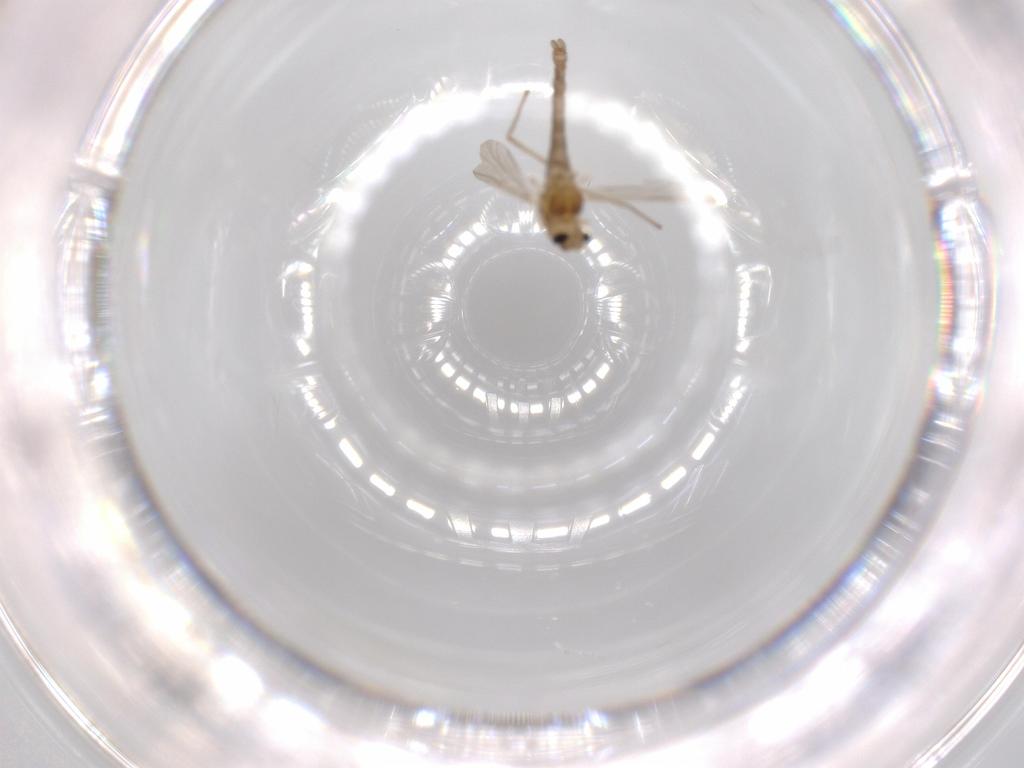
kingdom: Animalia
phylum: Arthropoda
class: Insecta
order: Diptera
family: Chironomidae
